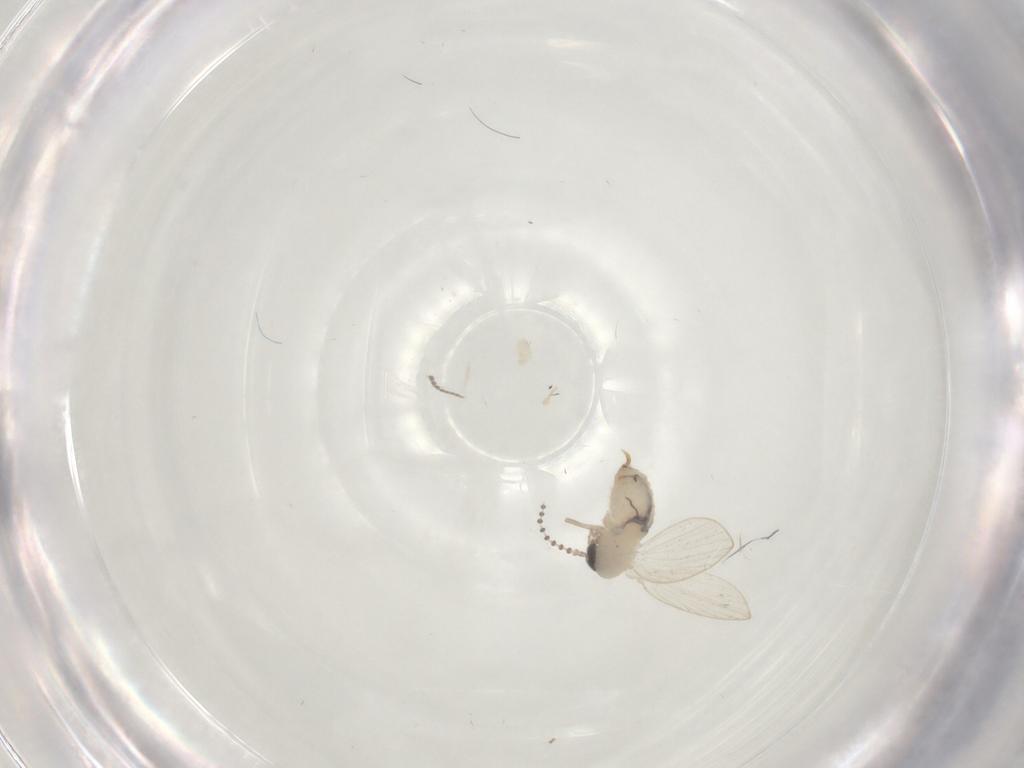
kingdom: Animalia
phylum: Arthropoda
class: Insecta
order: Diptera
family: Psychodidae
